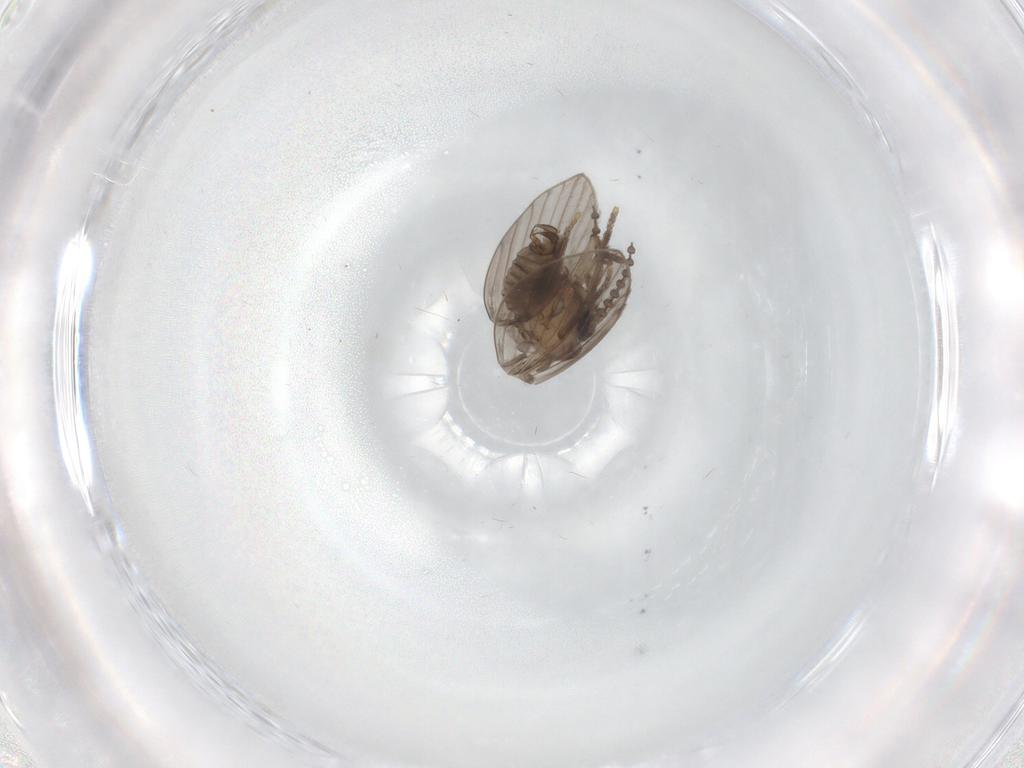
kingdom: Animalia
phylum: Arthropoda
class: Insecta
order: Diptera
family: Psychodidae
